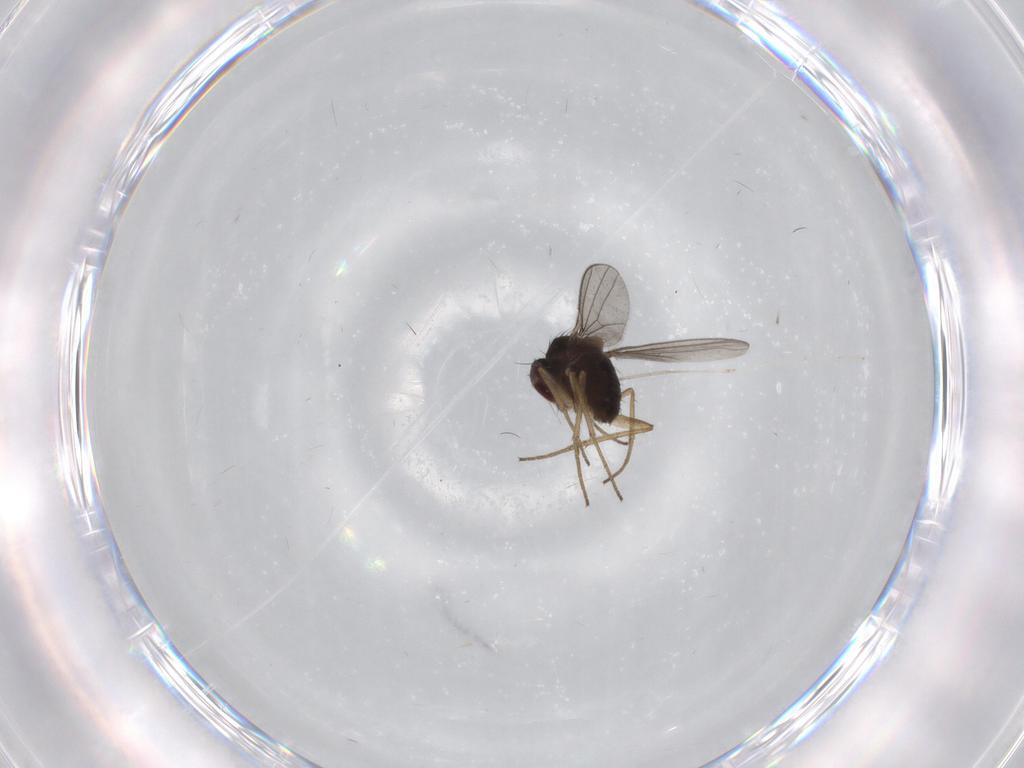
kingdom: Animalia
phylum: Arthropoda
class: Insecta
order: Diptera
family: Dolichopodidae
